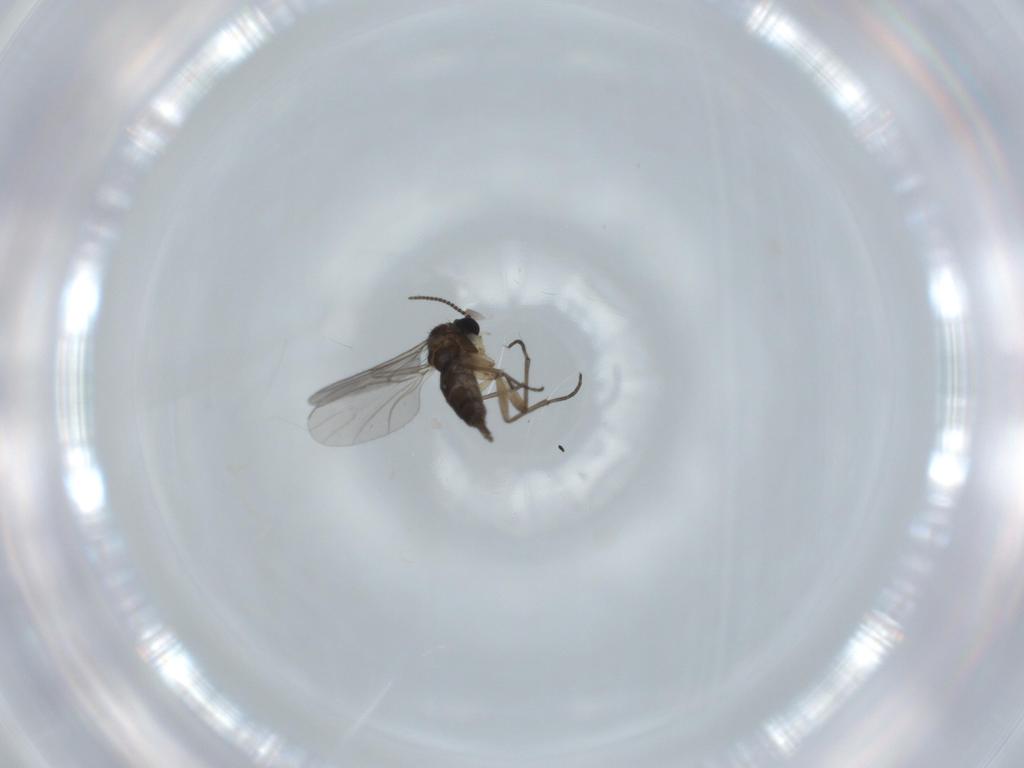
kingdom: Animalia
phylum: Arthropoda
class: Insecta
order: Diptera
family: Sciaridae
